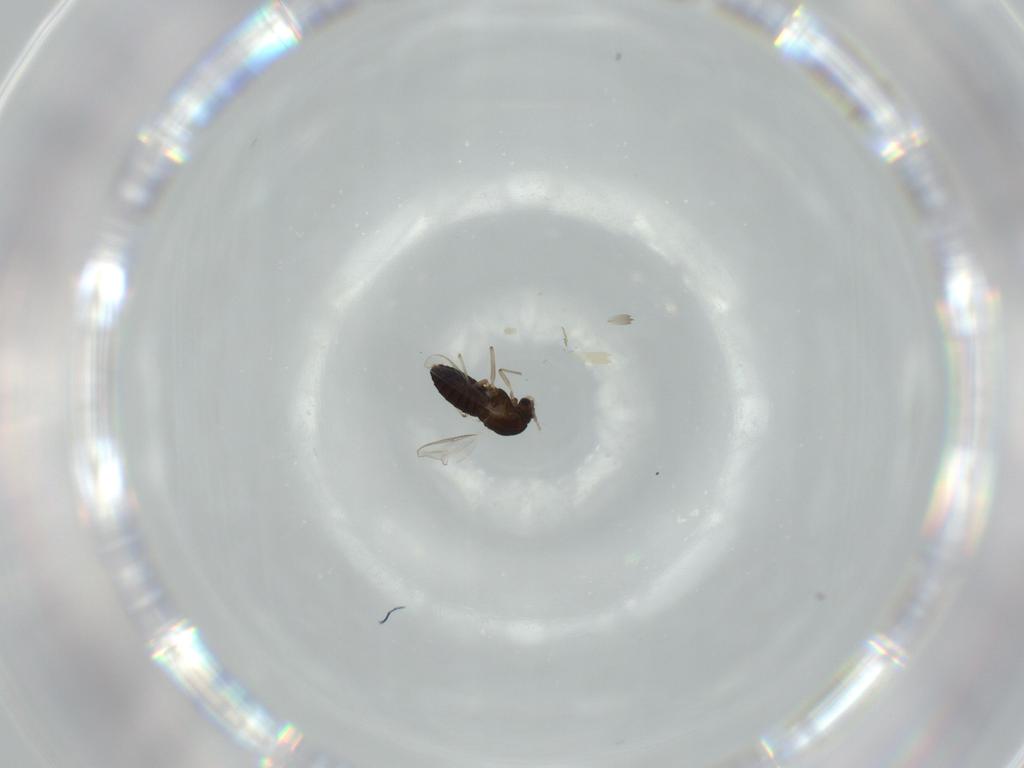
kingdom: Animalia
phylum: Arthropoda
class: Insecta
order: Diptera
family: Chironomidae
